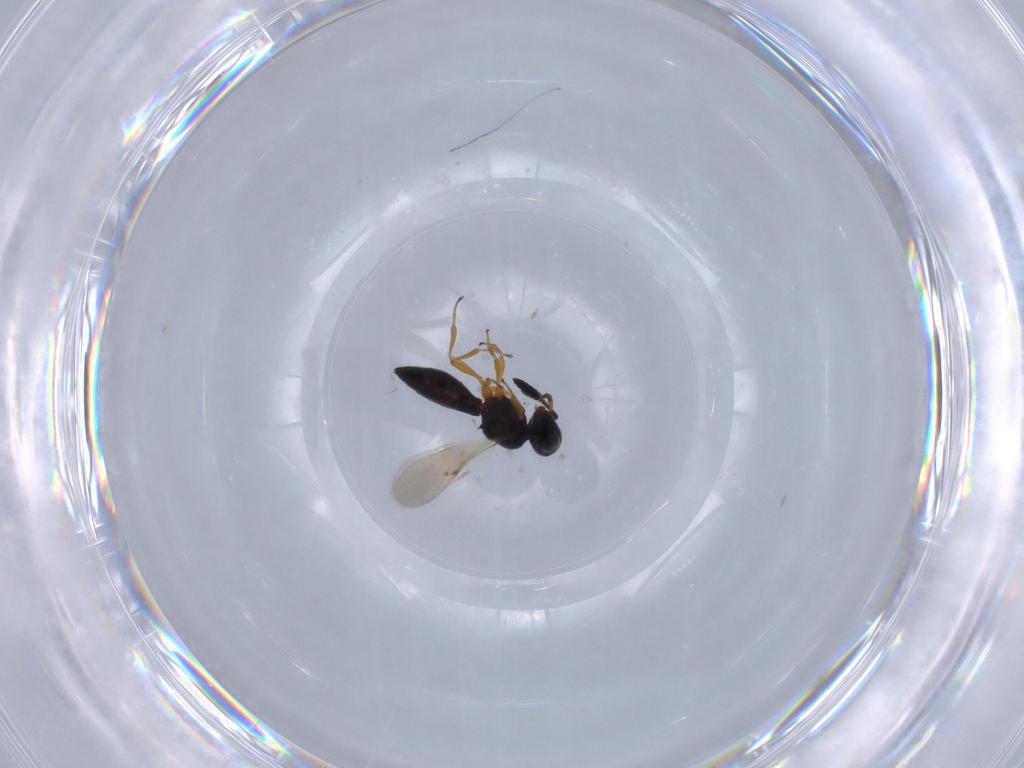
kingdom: Animalia
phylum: Arthropoda
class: Insecta
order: Hymenoptera
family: Scelionidae
